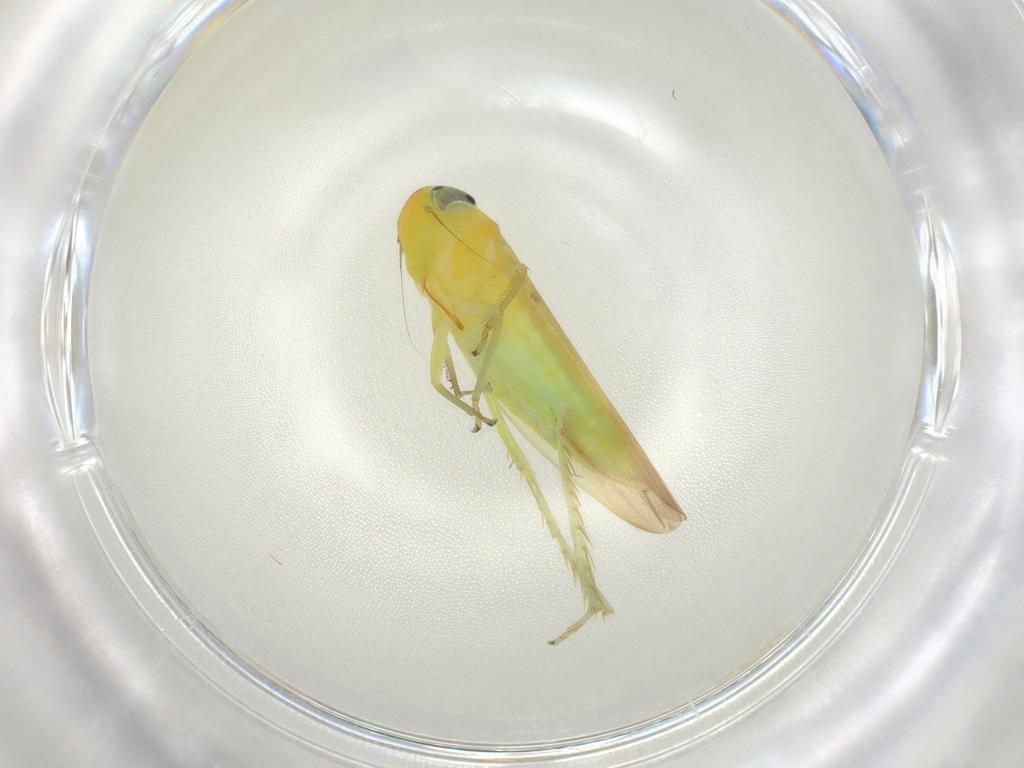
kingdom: Animalia
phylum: Arthropoda
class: Insecta
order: Hemiptera
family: Cicadellidae
